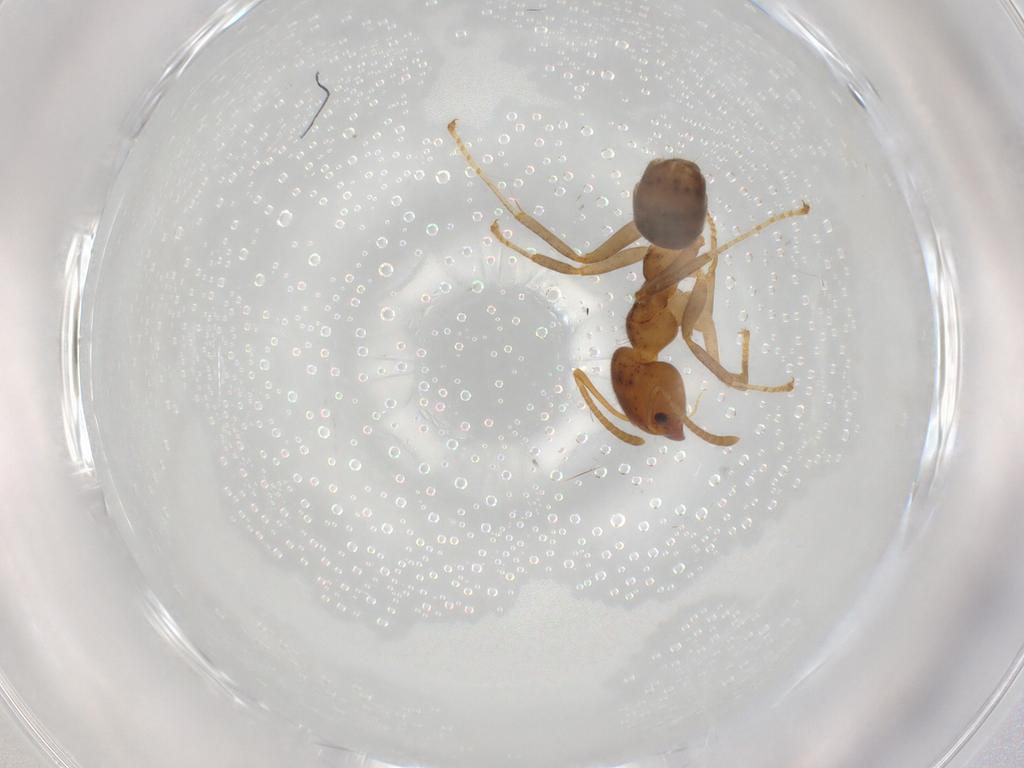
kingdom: Animalia
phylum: Arthropoda
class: Insecta
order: Hymenoptera
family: Formicidae
